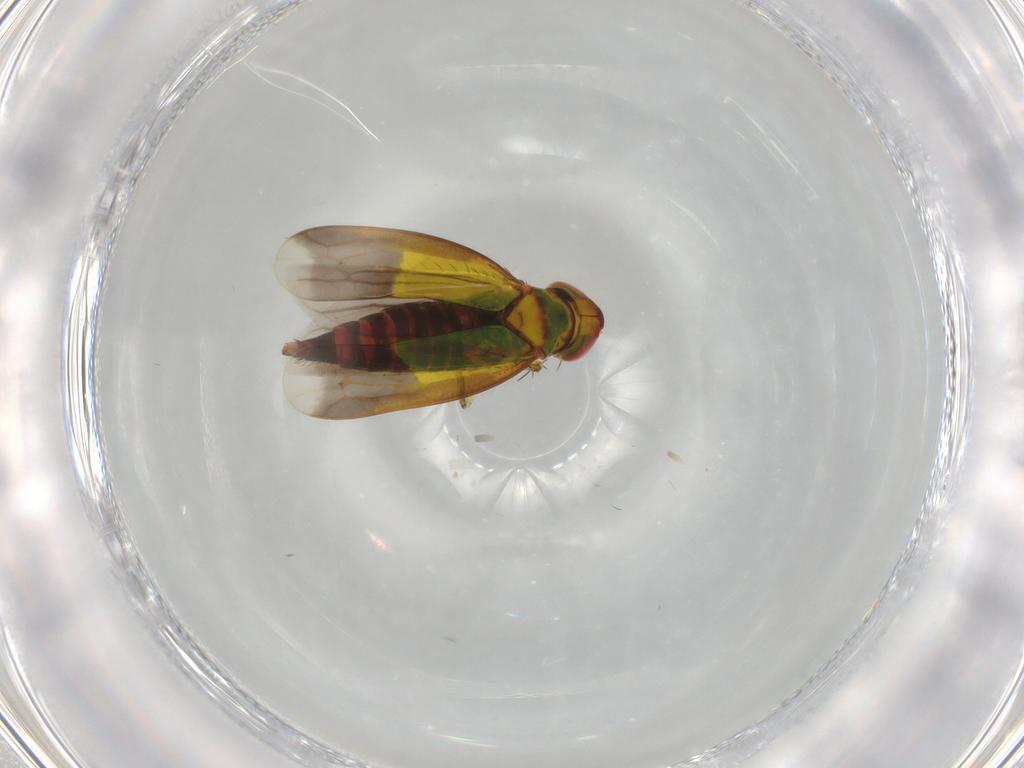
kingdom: Animalia
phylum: Arthropoda
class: Insecta
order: Hemiptera
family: Cicadellidae
